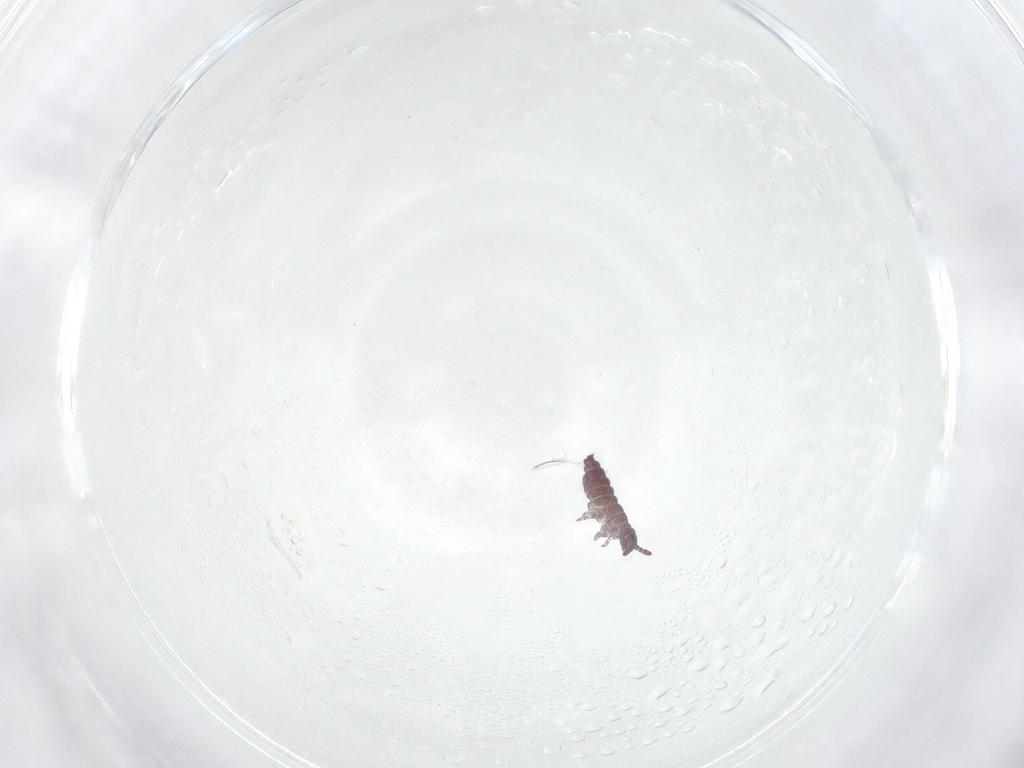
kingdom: Animalia
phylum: Arthropoda
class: Collembola
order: Poduromorpha
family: Hypogastruridae
